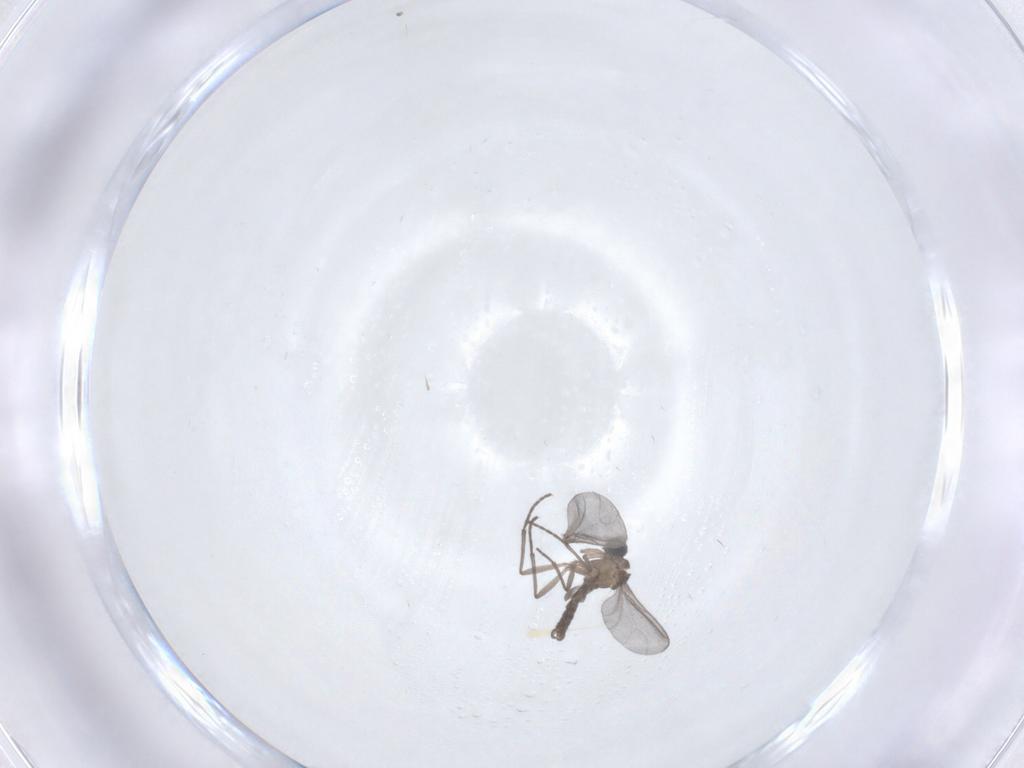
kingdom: Animalia
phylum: Arthropoda
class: Insecta
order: Diptera
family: Sciaridae
